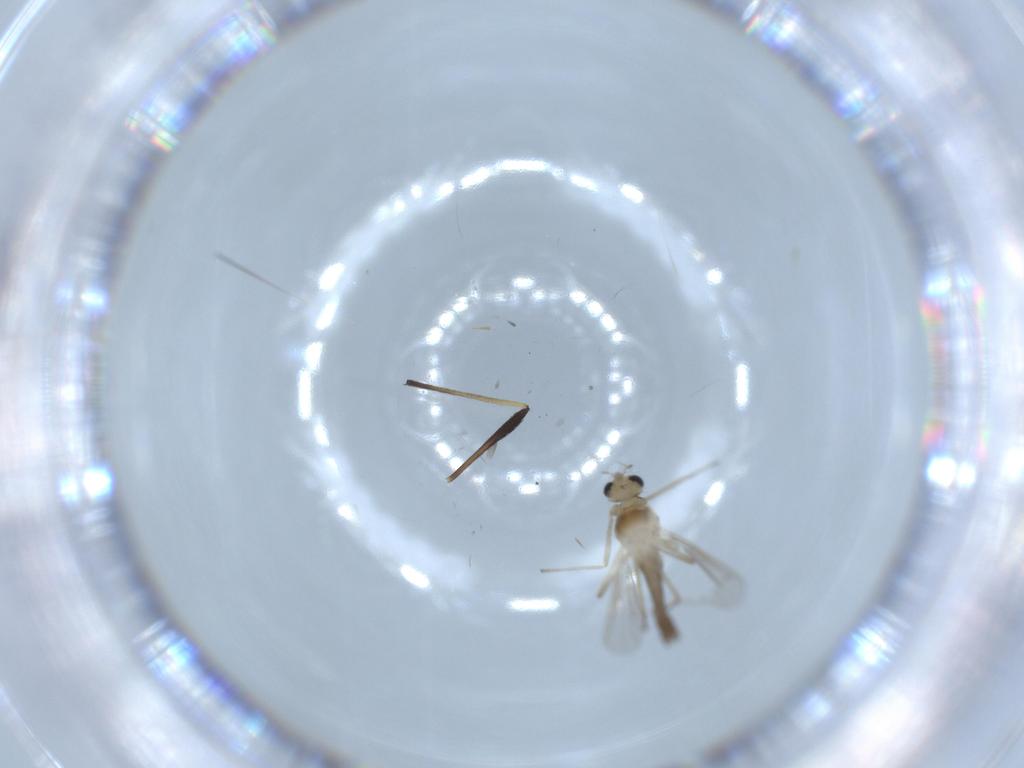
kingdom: Animalia
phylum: Arthropoda
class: Insecta
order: Diptera
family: Chironomidae
